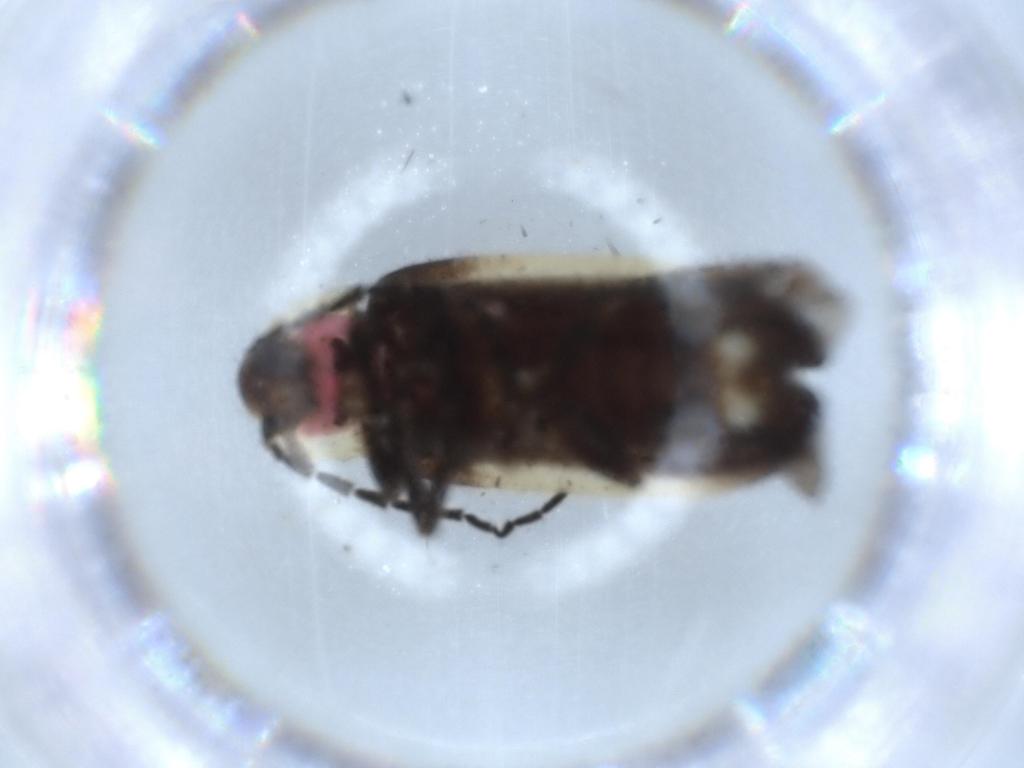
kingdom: Animalia
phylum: Arthropoda
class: Insecta
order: Coleoptera
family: Lampyridae
